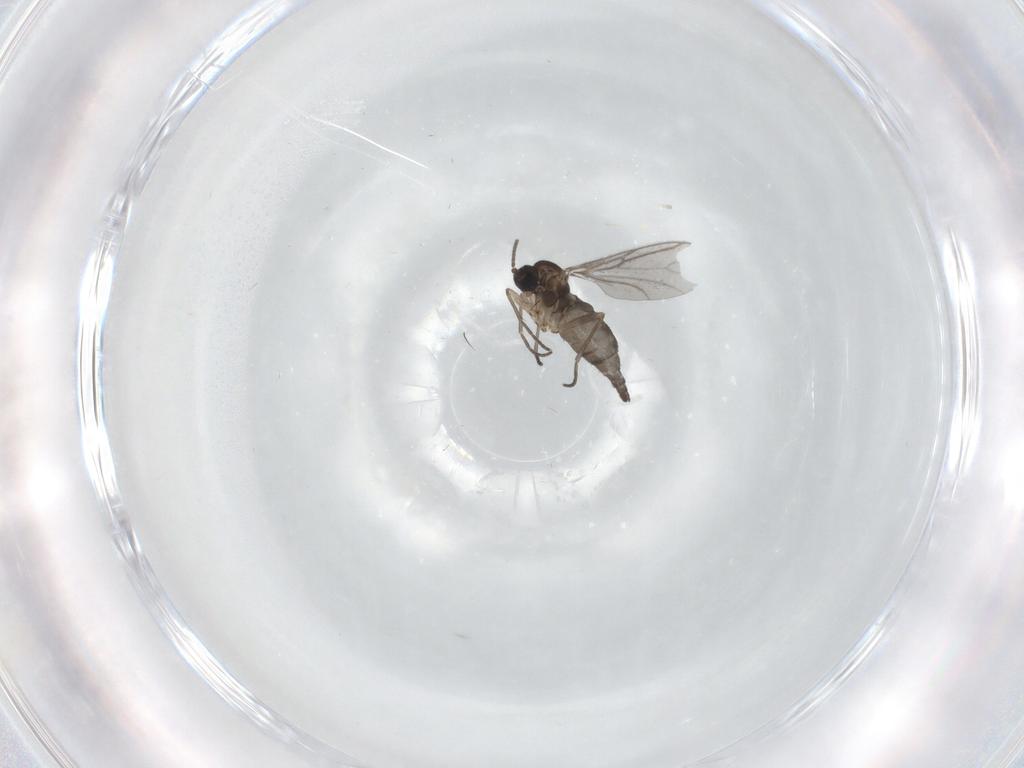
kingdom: Animalia
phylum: Arthropoda
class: Insecta
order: Diptera
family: Sciaridae
